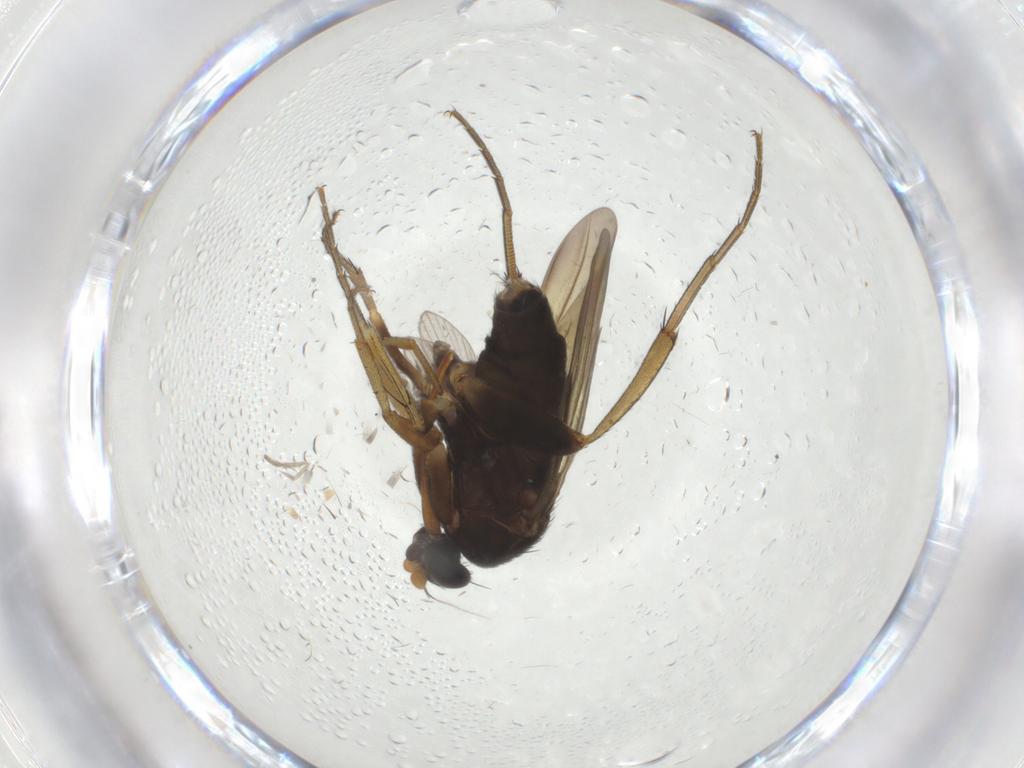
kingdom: Animalia
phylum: Arthropoda
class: Insecta
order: Diptera
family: Phoridae
